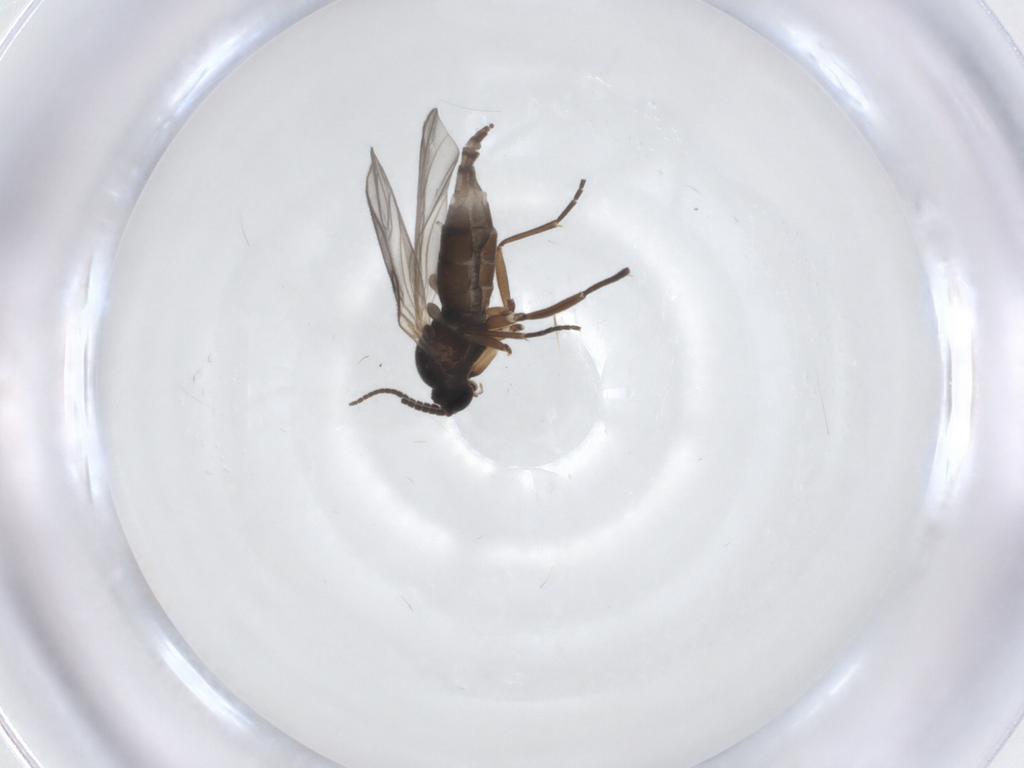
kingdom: Animalia
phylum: Arthropoda
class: Insecta
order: Diptera
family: Sciaridae
